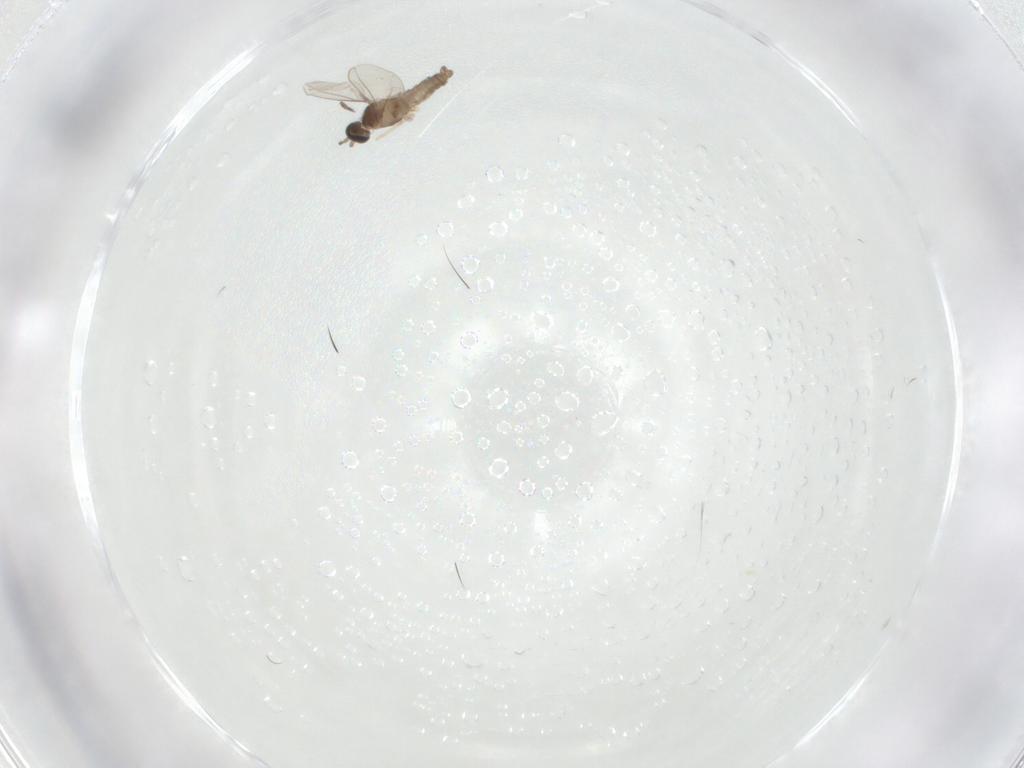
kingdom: Animalia
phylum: Arthropoda
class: Insecta
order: Diptera
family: Cecidomyiidae
